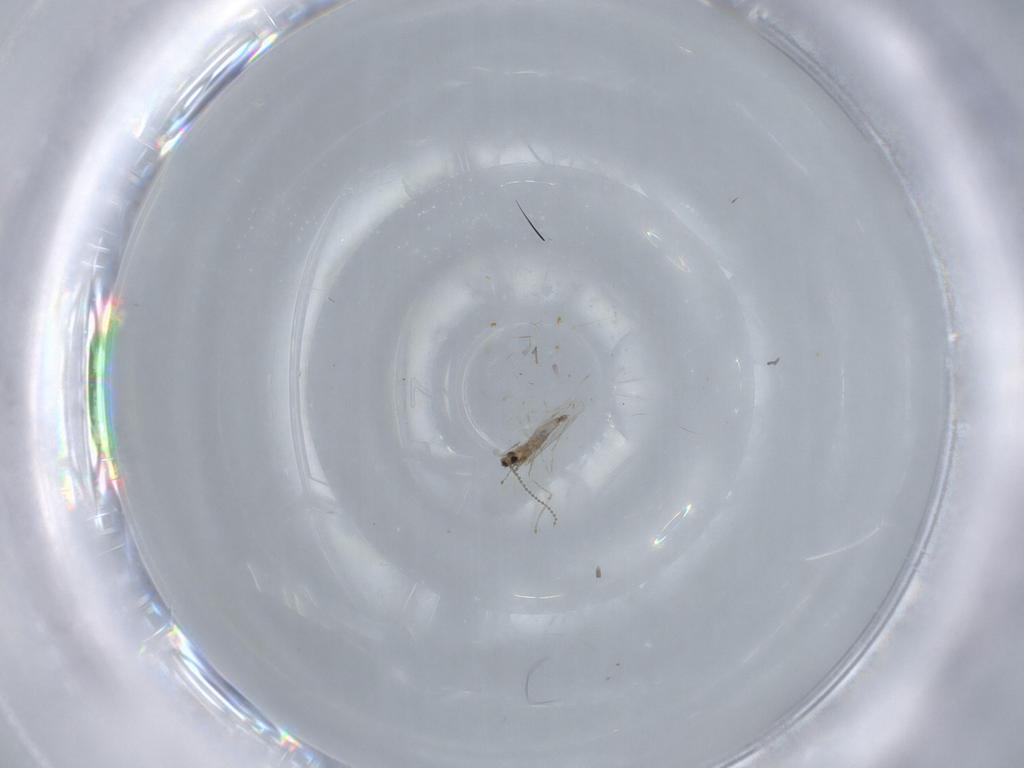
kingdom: Animalia
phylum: Arthropoda
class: Insecta
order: Diptera
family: Cecidomyiidae
